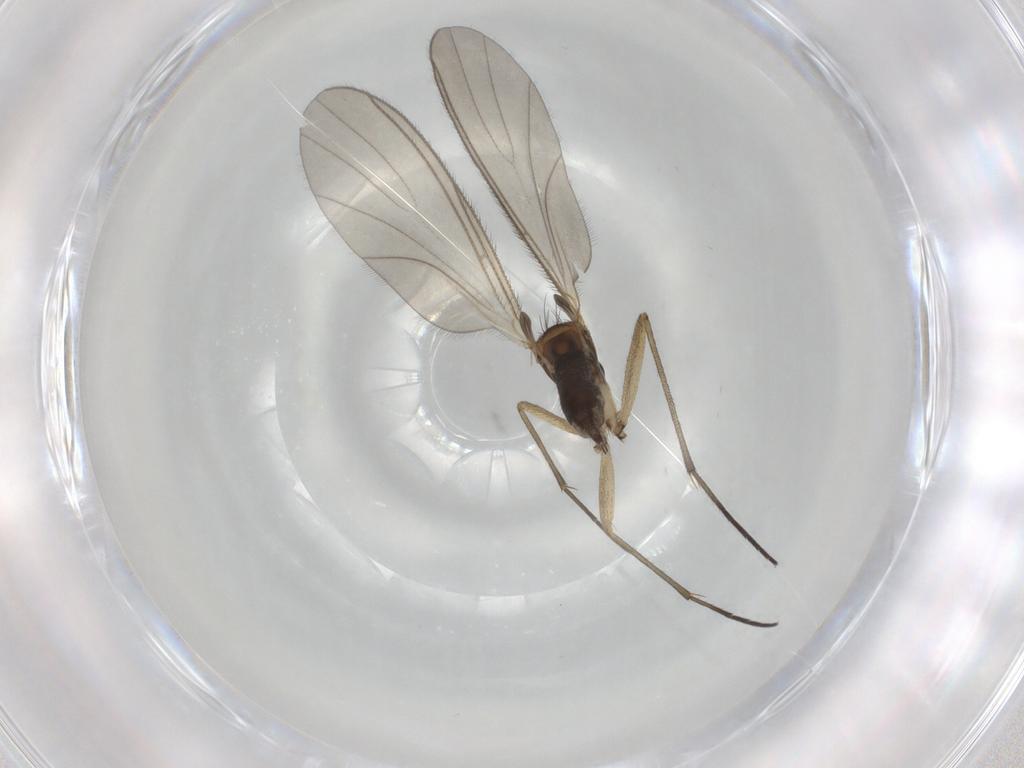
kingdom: Animalia
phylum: Arthropoda
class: Insecta
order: Diptera
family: Sciaridae
